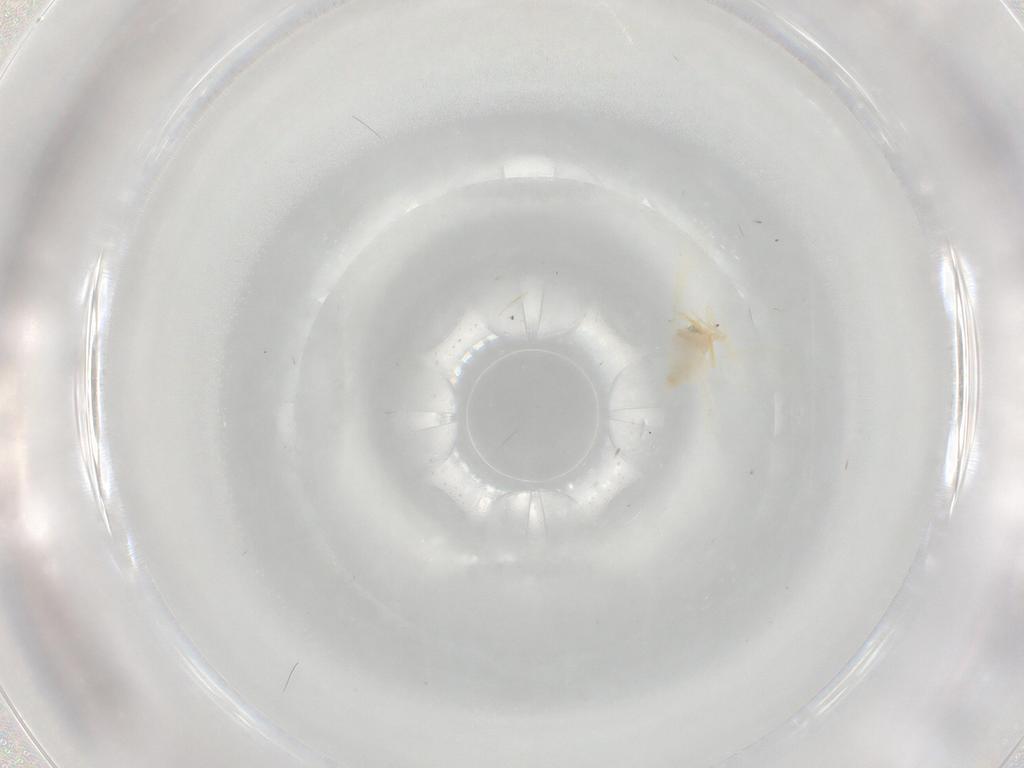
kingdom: Animalia
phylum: Arthropoda
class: Insecta
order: Hemiptera
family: Aleyrodidae
